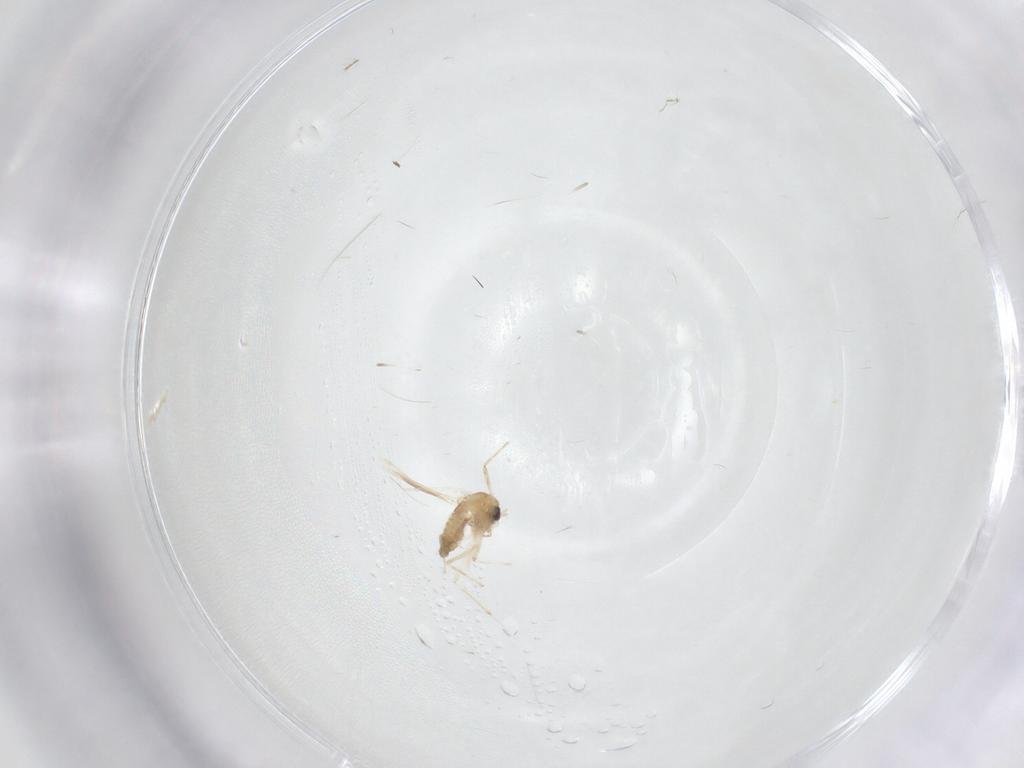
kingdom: Animalia
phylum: Arthropoda
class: Insecta
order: Diptera
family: Chironomidae
